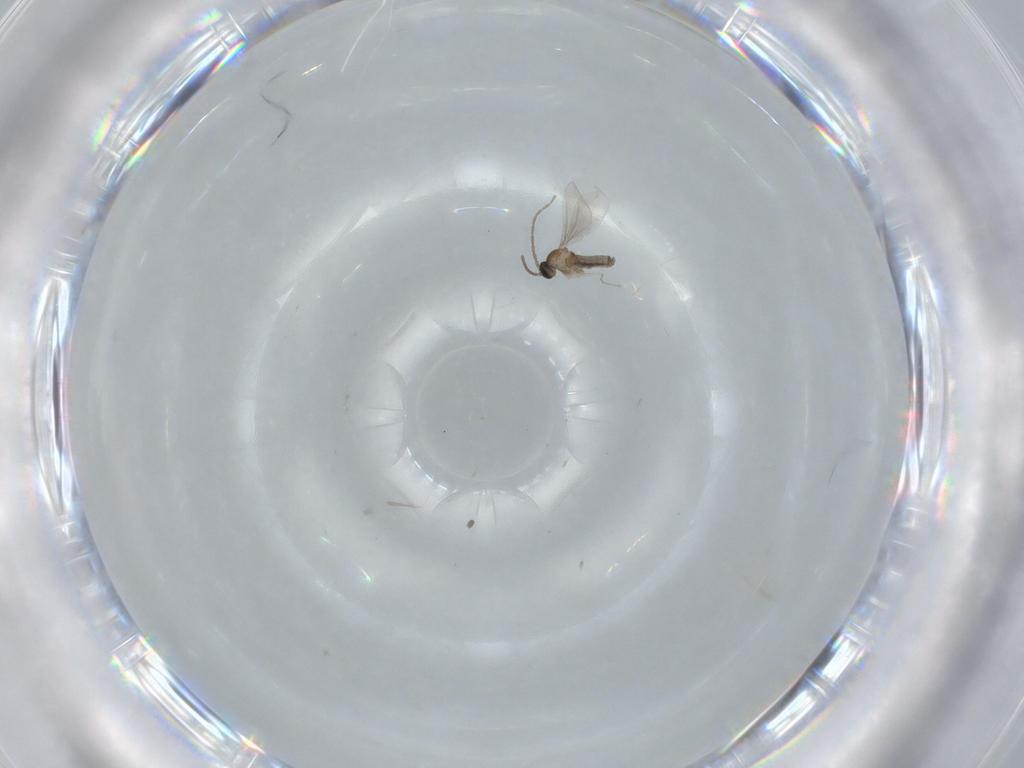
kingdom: Animalia
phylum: Arthropoda
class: Insecta
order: Diptera
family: Cecidomyiidae
